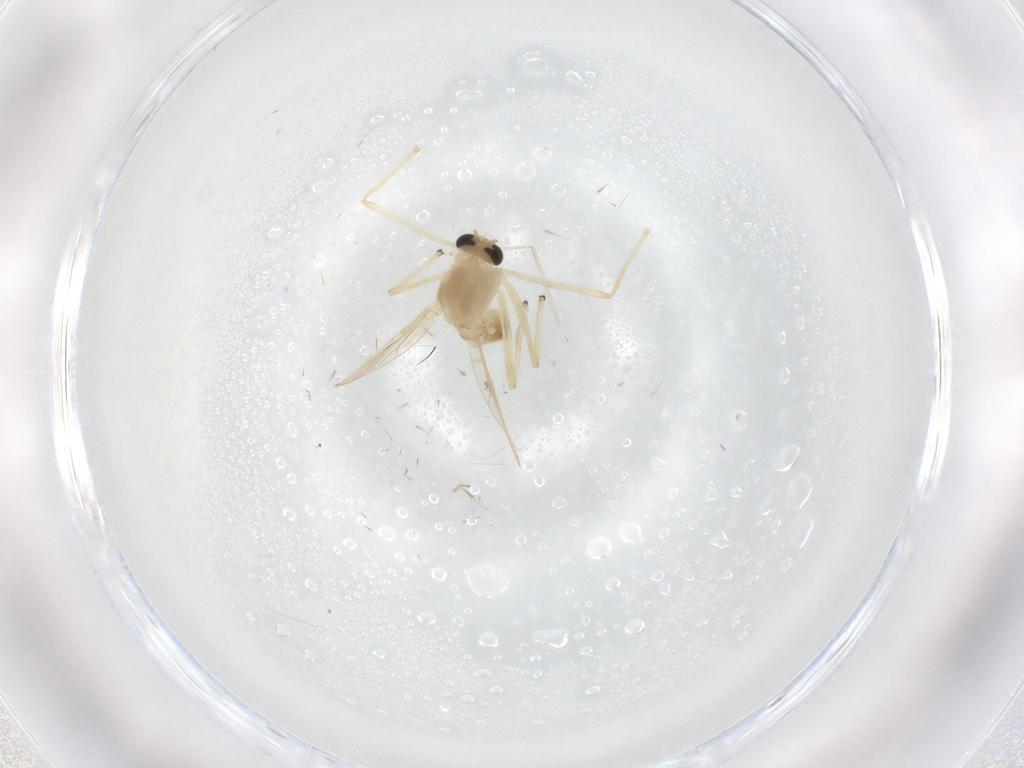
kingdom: Animalia
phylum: Arthropoda
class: Insecta
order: Diptera
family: Chironomidae
